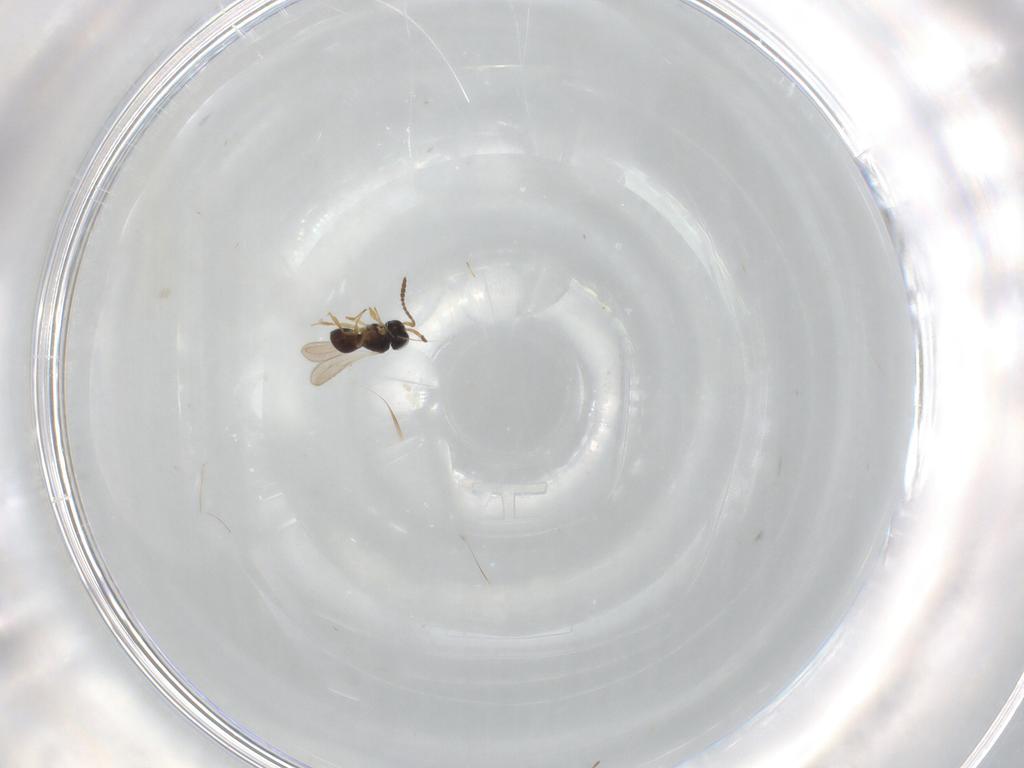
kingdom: Animalia
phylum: Arthropoda
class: Insecta
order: Hymenoptera
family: Scelionidae
